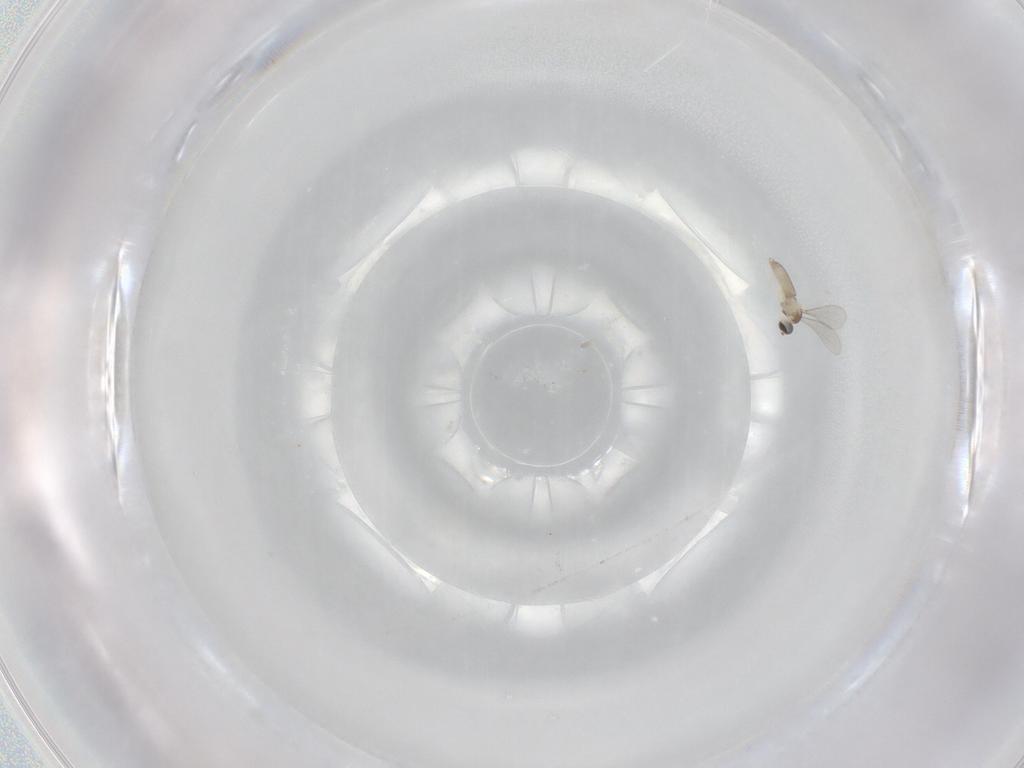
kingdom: Animalia
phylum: Arthropoda
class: Insecta
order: Diptera
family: Chironomidae
